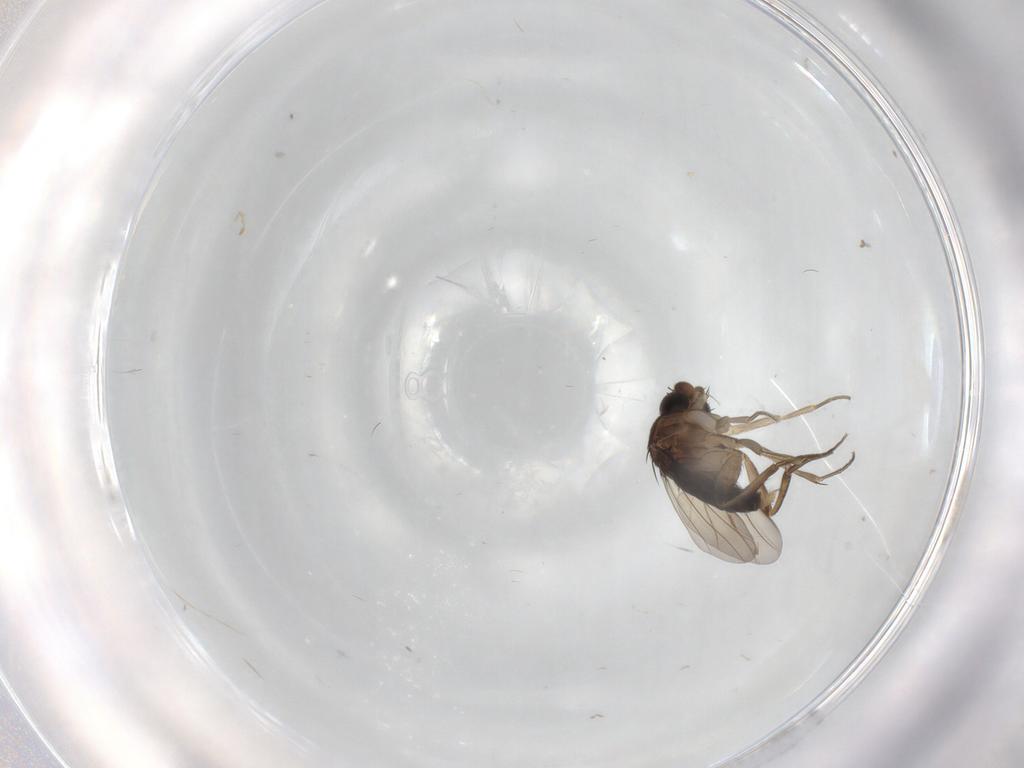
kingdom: Animalia
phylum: Arthropoda
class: Insecta
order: Diptera
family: Phoridae
